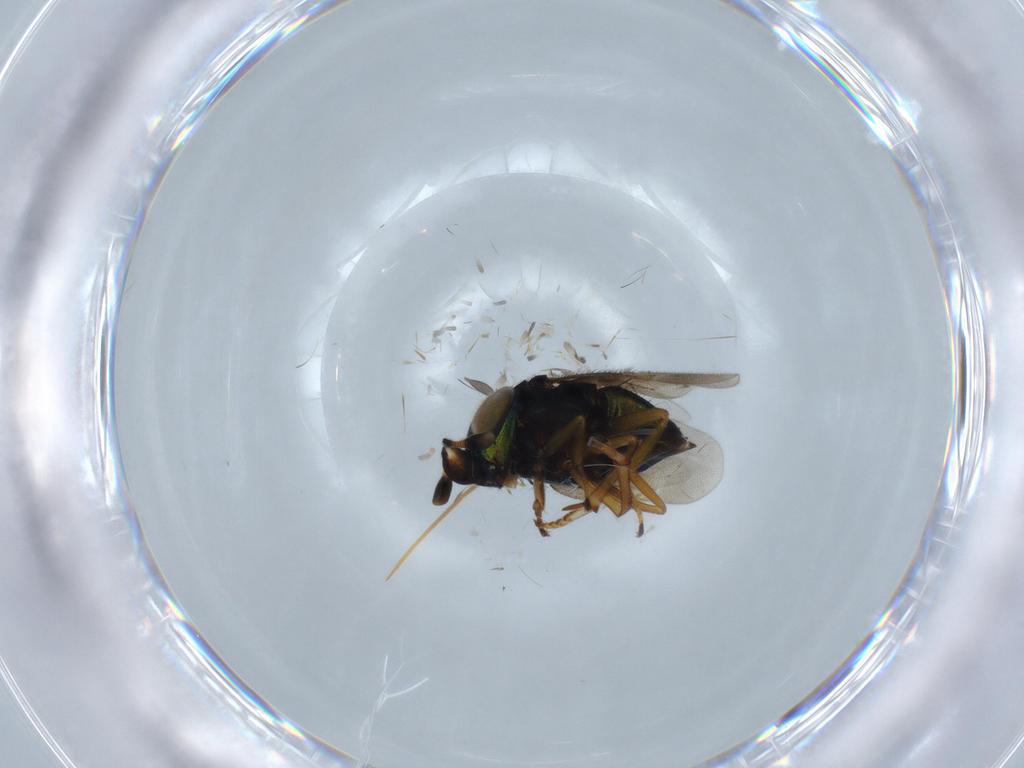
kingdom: Animalia
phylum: Arthropoda
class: Insecta
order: Hymenoptera
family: Encyrtidae
